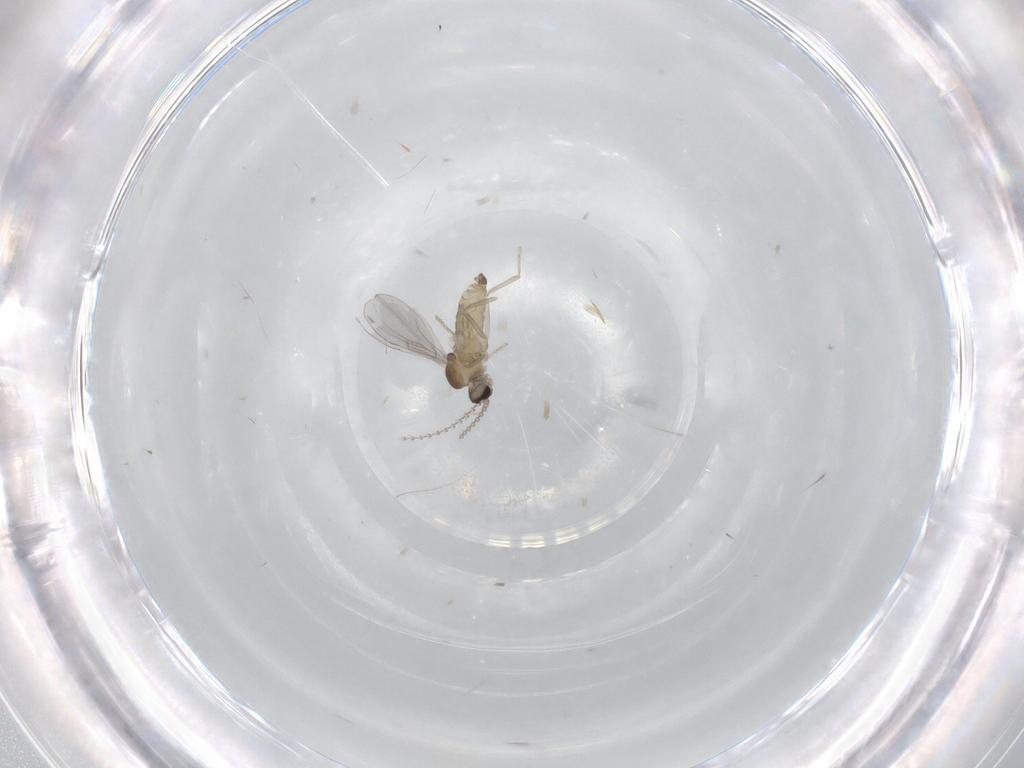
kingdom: Animalia
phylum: Arthropoda
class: Insecta
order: Diptera
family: Cecidomyiidae
